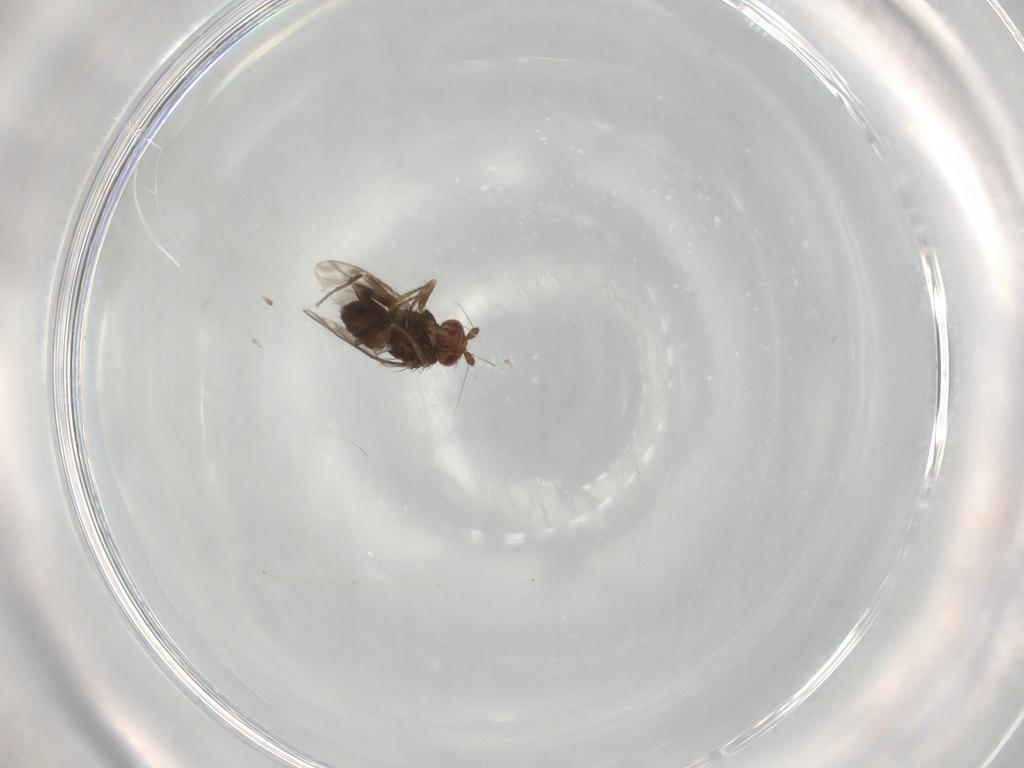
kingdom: Animalia
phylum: Arthropoda
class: Insecta
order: Diptera
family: Sphaeroceridae
